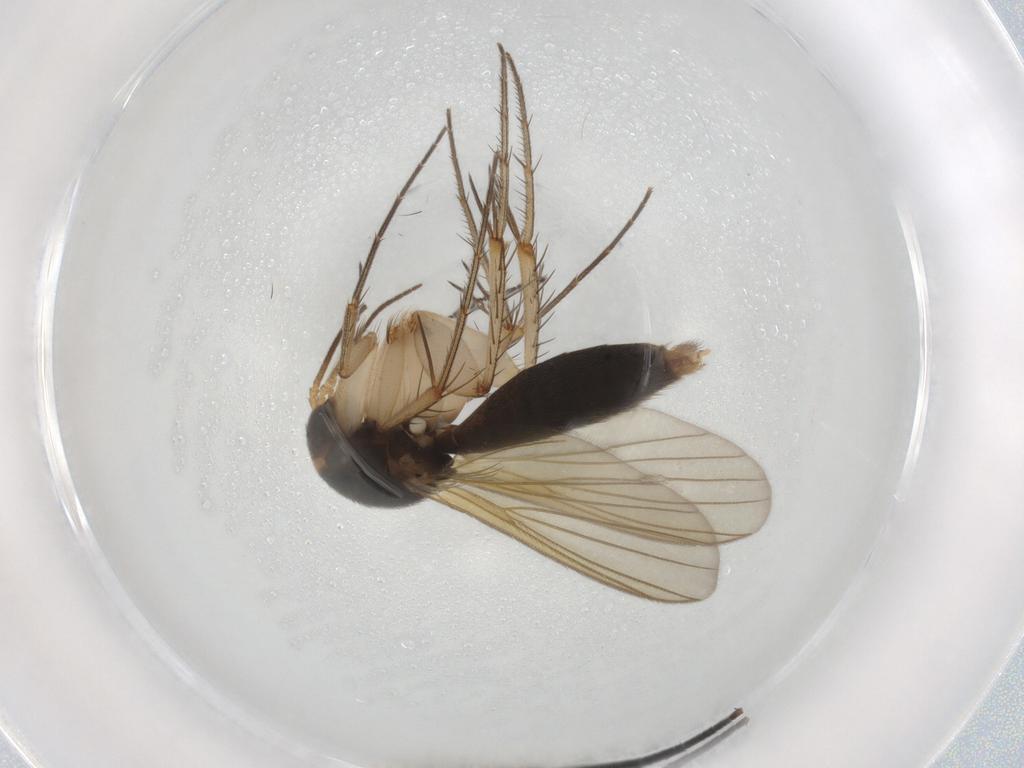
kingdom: Animalia
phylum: Arthropoda
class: Insecta
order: Diptera
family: Mycetophilidae
